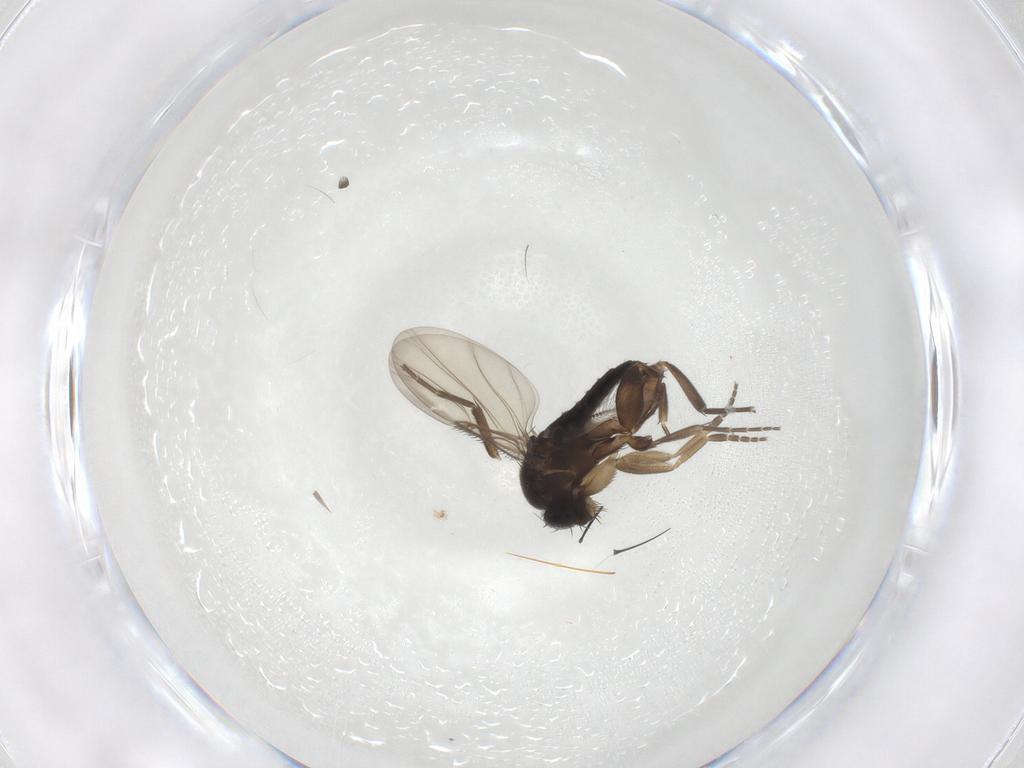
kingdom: Animalia
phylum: Arthropoda
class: Insecta
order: Diptera
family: Phoridae
